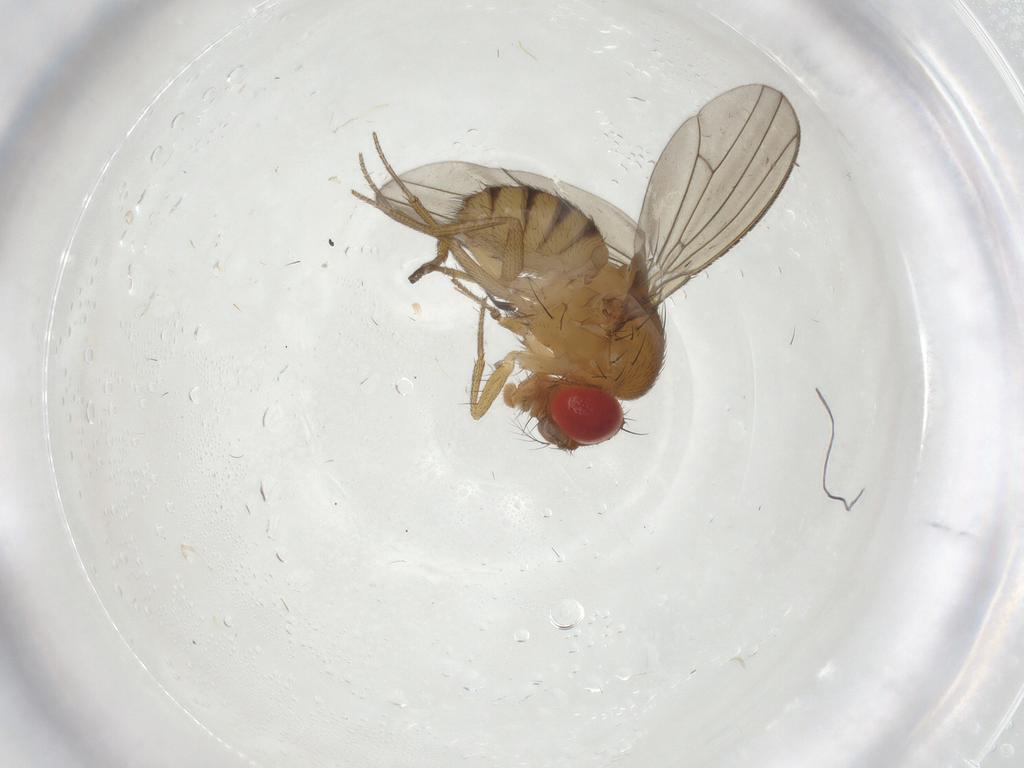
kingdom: Animalia
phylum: Arthropoda
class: Insecta
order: Diptera
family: Drosophilidae
